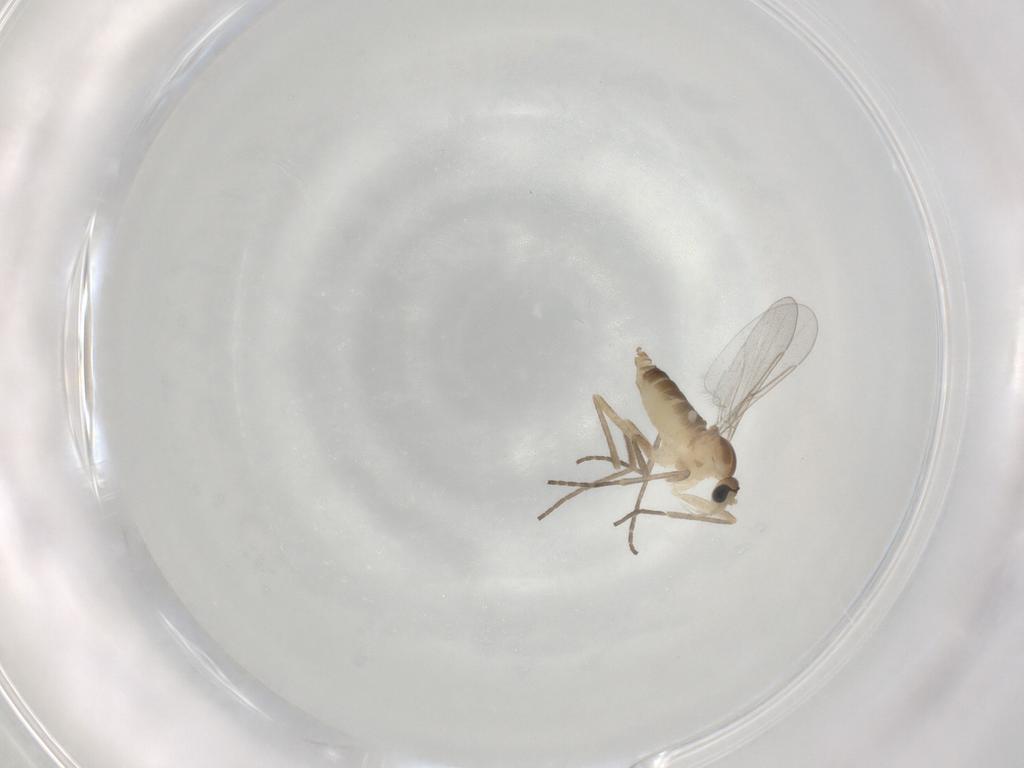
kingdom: Animalia
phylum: Arthropoda
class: Insecta
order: Diptera
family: Cecidomyiidae
